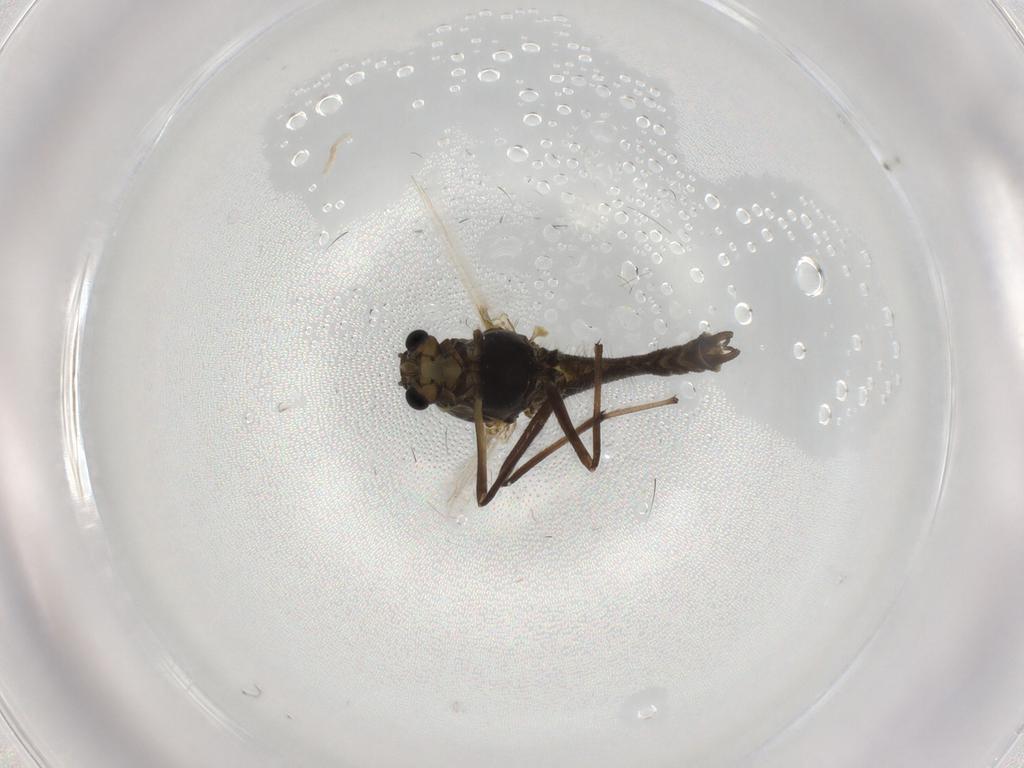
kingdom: Animalia
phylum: Arthropoda
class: Insecta
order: Diptera
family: Chironomidae
